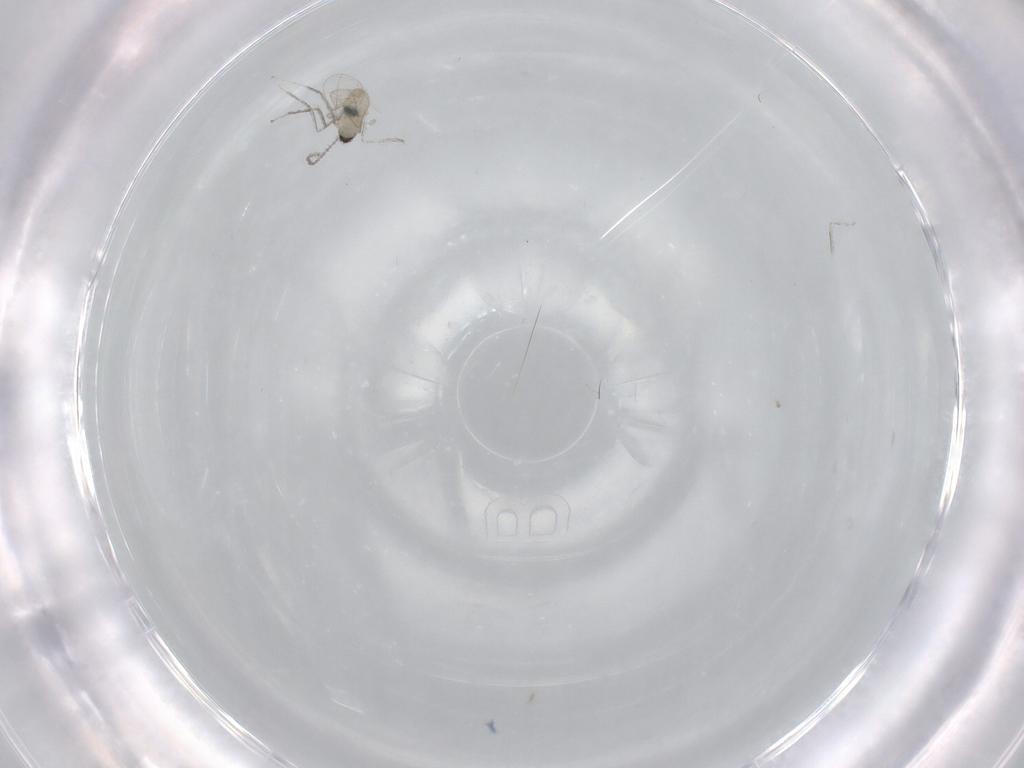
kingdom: Animalia
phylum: Arthropoda
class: Insecta
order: Diptera
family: Cecidomyiidae
